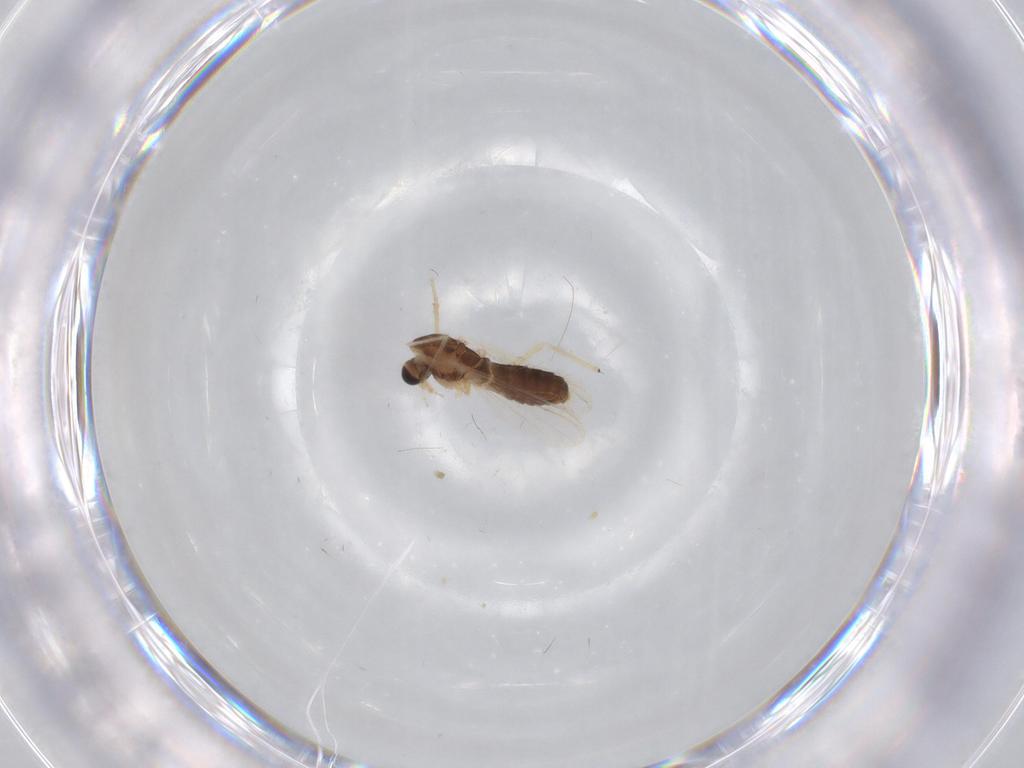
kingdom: Animalia
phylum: Arthropoda
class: Insecta
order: Diptera
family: Chironomidae
